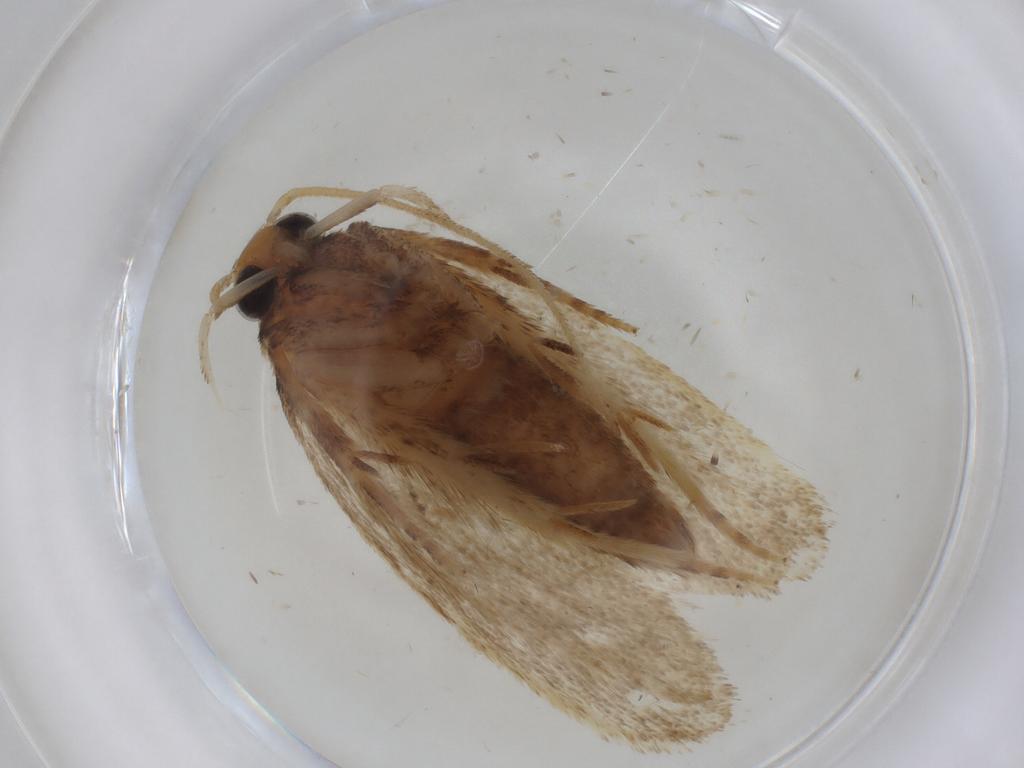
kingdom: Animalia
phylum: Arthropoda
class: Insecta
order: Lepidoptera
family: Depressariidae
